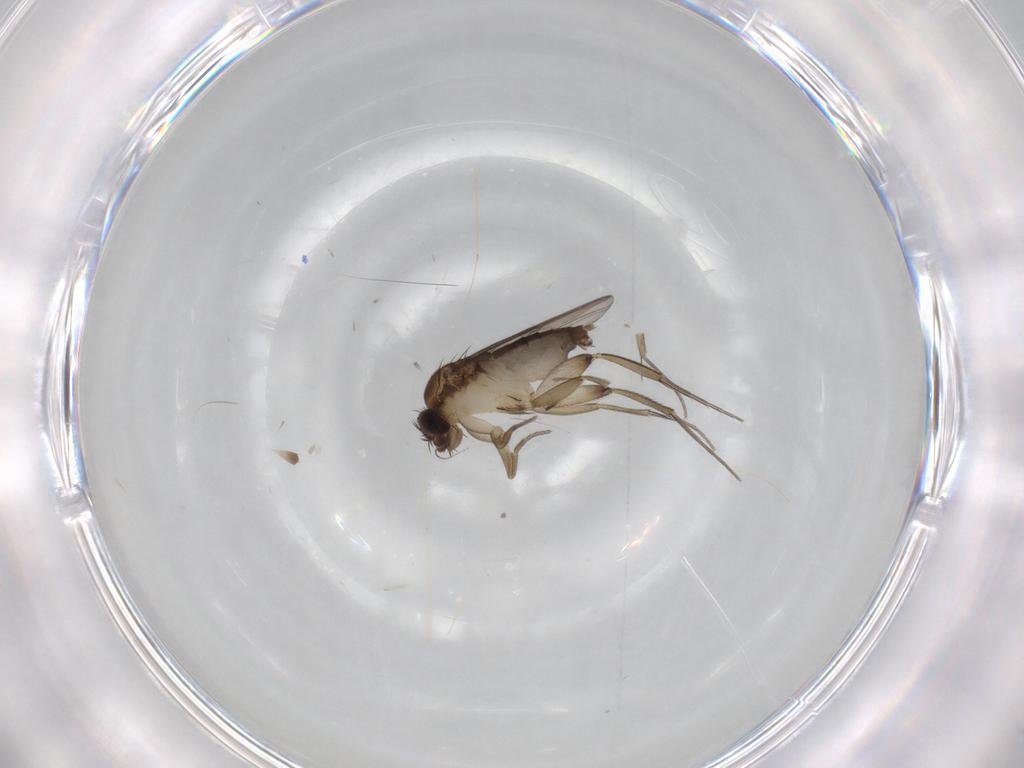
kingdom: Animalia
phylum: Arthropoda
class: Insecta
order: Diptera
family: Phoridae
